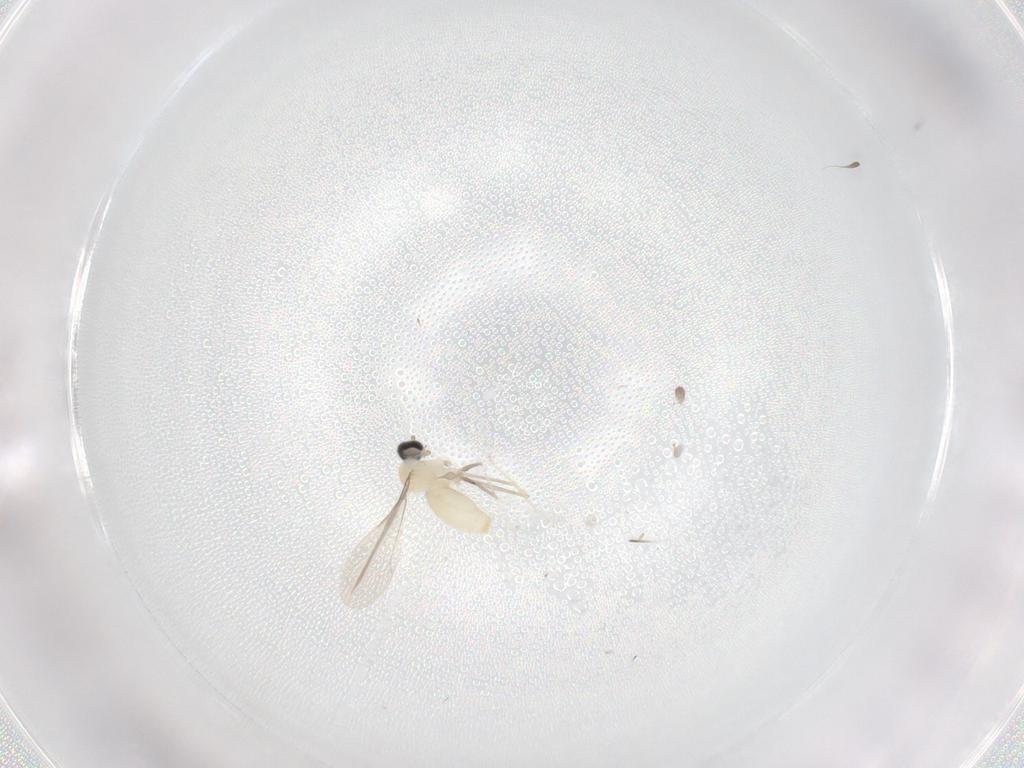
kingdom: Animalia
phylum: Arthropoda
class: Insecta
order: Diptera
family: Cecidomyiidae
